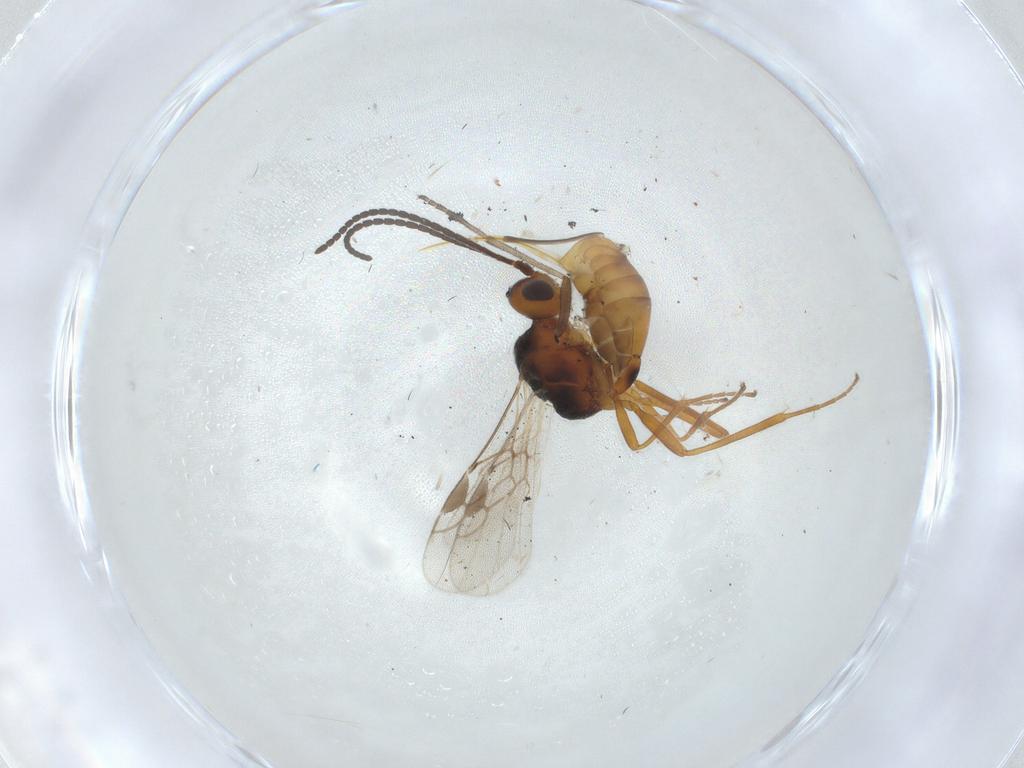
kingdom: Animalia
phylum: Arthropoda
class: Insecta
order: Hymenoptera
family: Braconidae
